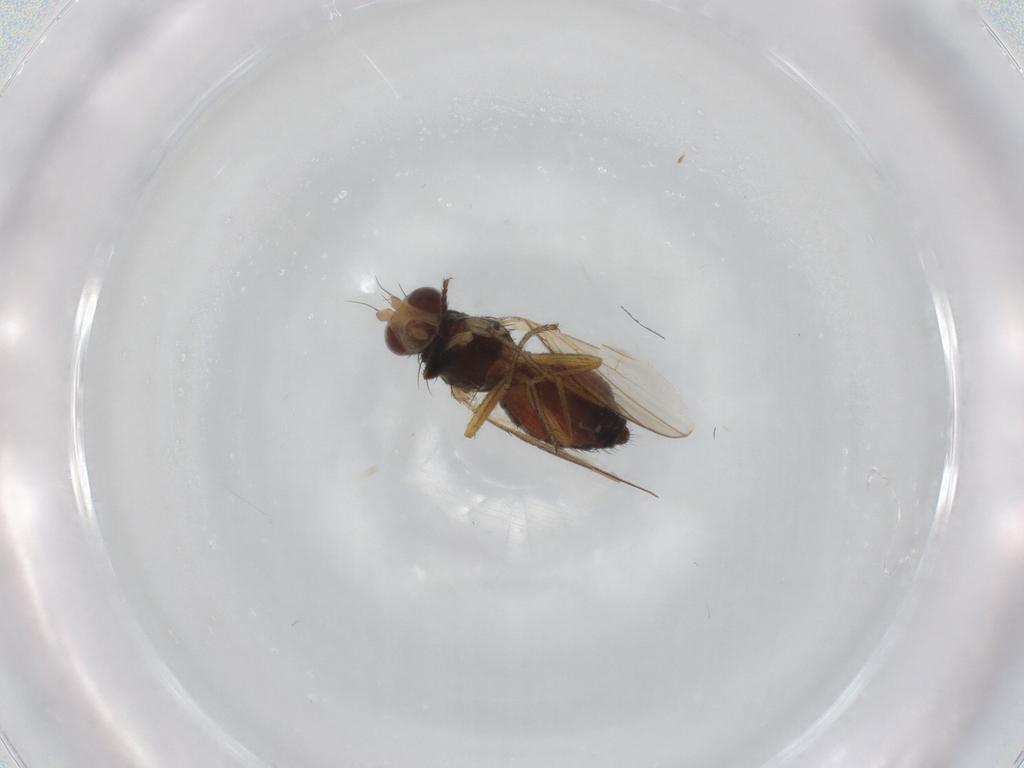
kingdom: Animalia
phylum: Arthropoda
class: Insecta
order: Diptera
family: Heleomyzidae
